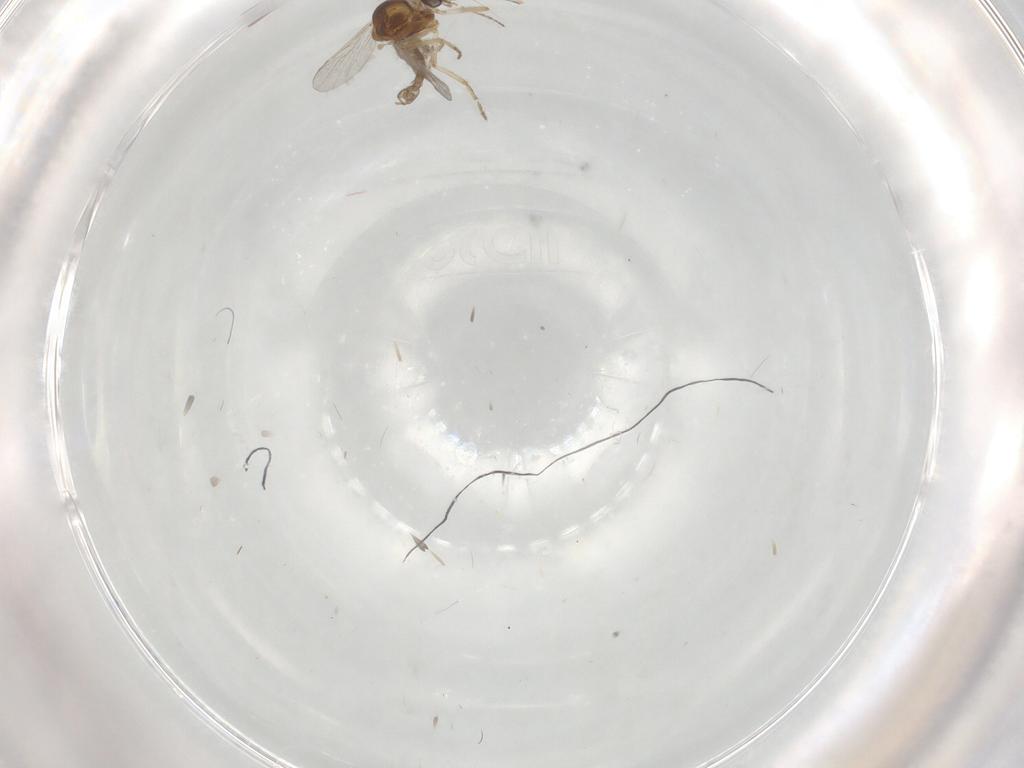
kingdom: Animalia
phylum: Arthropoda
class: Insecta
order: Diptera
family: Ceratopogonidae
